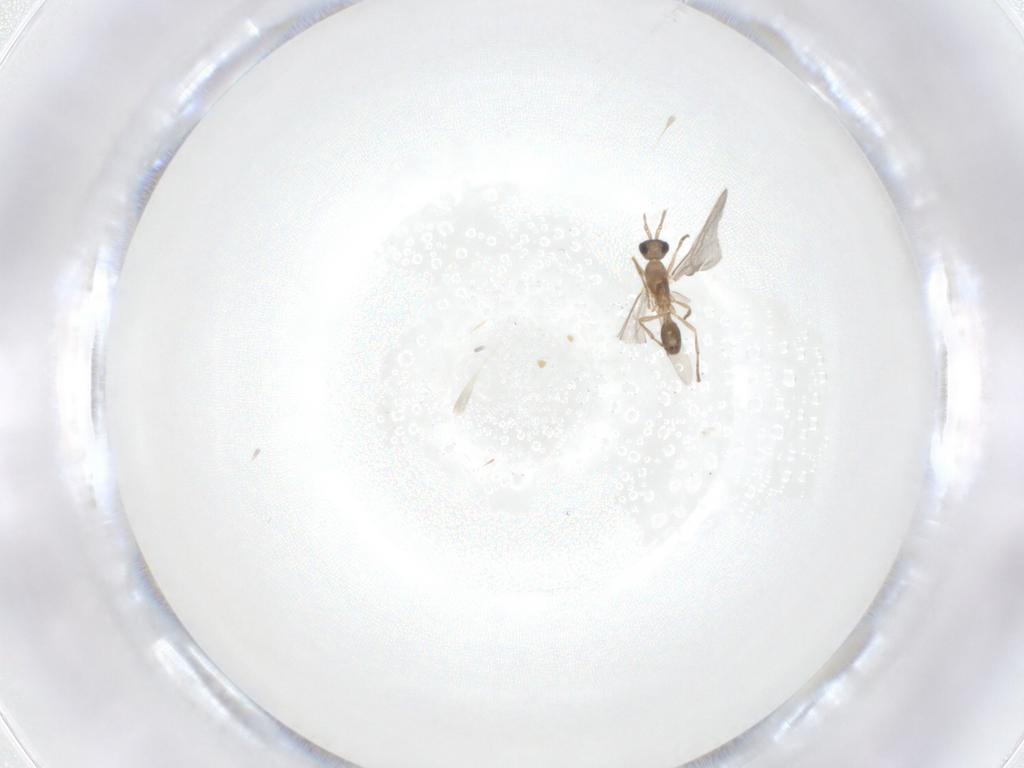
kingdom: Animalia
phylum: Arthropoda
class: Insecta
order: Hymenoptera
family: Formicidae
